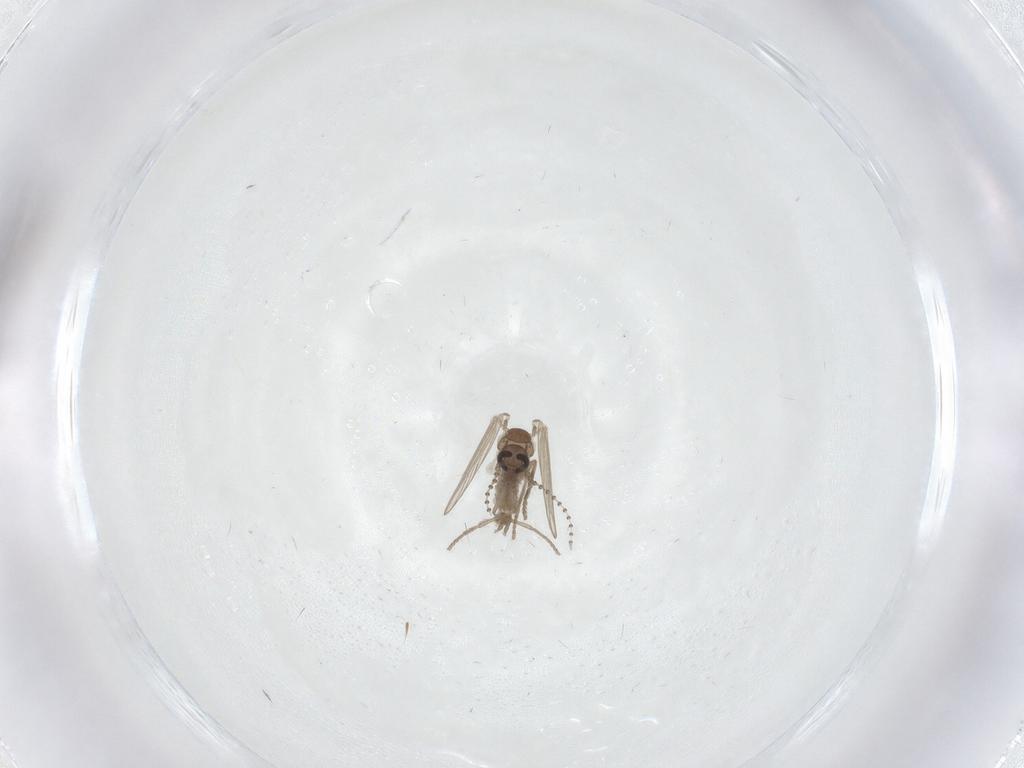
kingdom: Animalia
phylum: Arthropoda
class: Insecta
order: Diptera
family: Psychodidae
